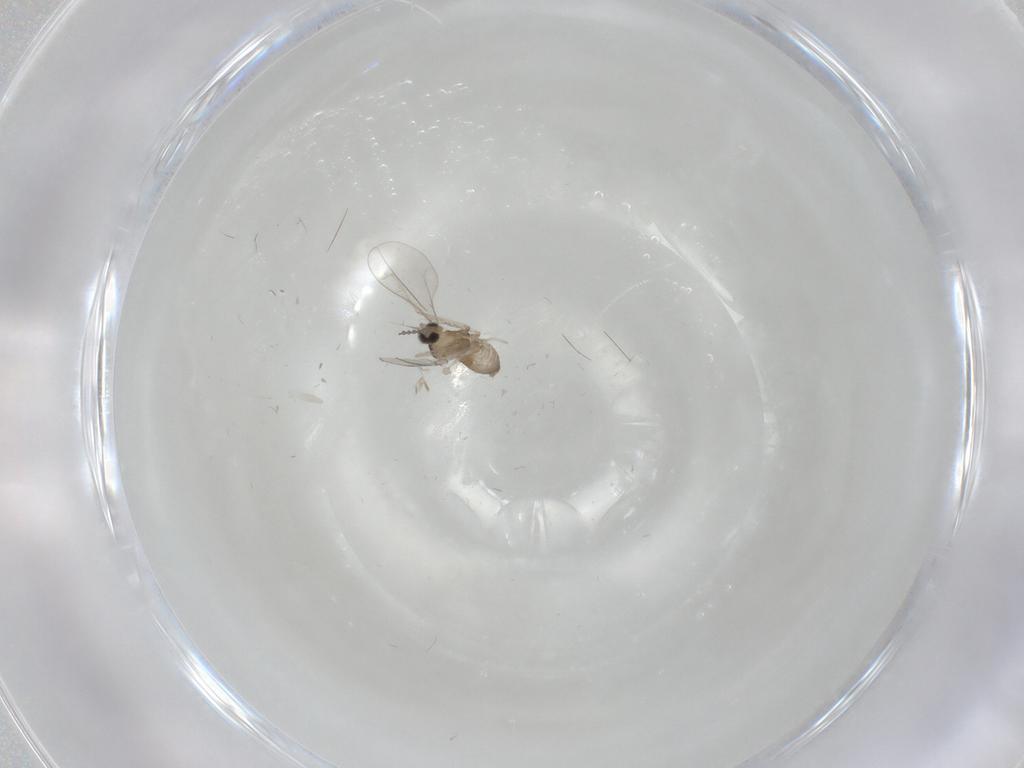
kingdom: Animalia
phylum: Arthropoda
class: Insecta
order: Diptera
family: Cecidomyiidae
